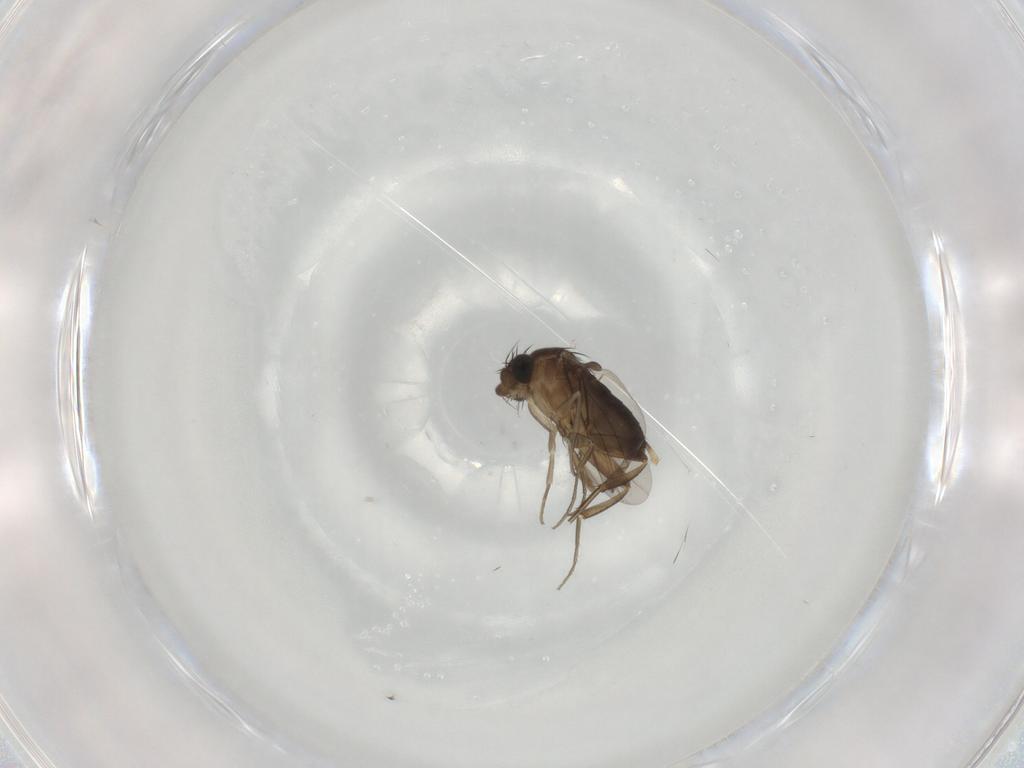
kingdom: Animalia
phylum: Arthropoda
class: Insecta
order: Diptera
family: Phoridae
